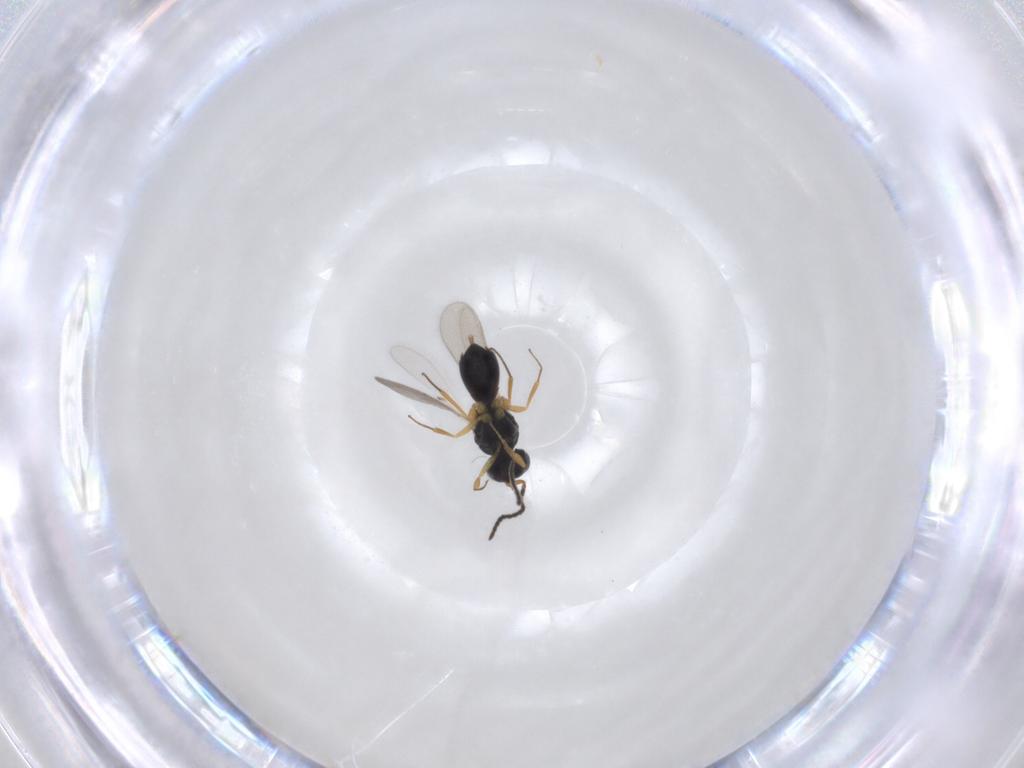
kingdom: Animalia
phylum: Arthropoda
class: Insecta
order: Hymenoptera
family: Scelionidae
